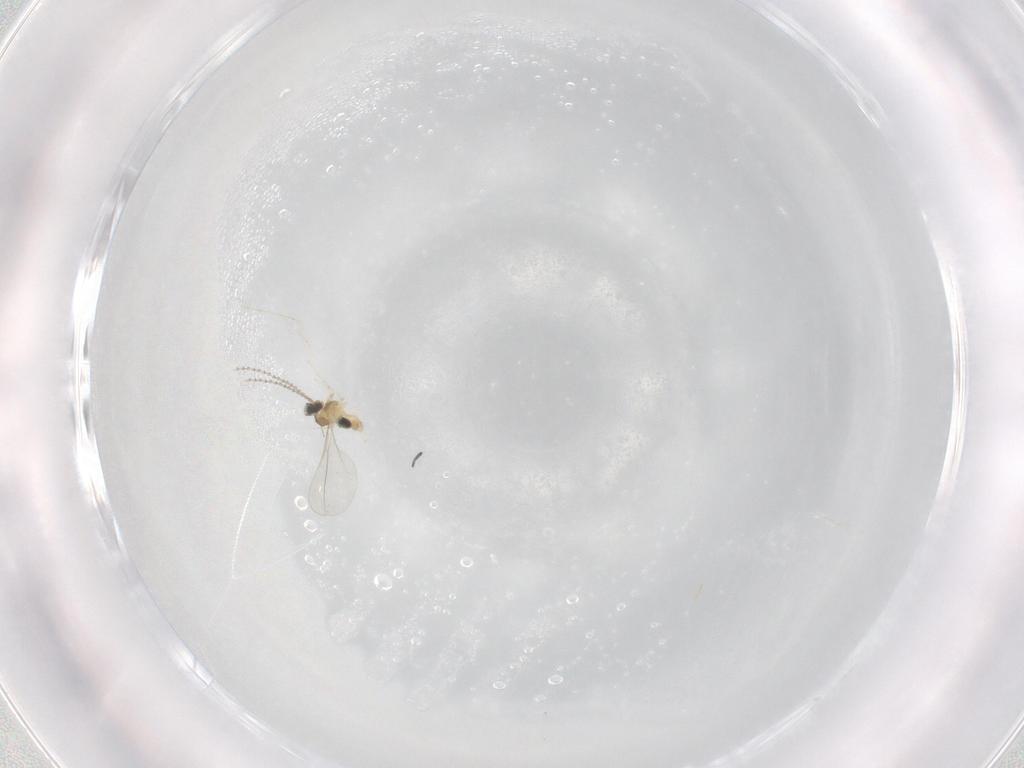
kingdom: Animalia
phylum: Arthropoda
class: Insecta
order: Diptera
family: Cecidomyiidae
